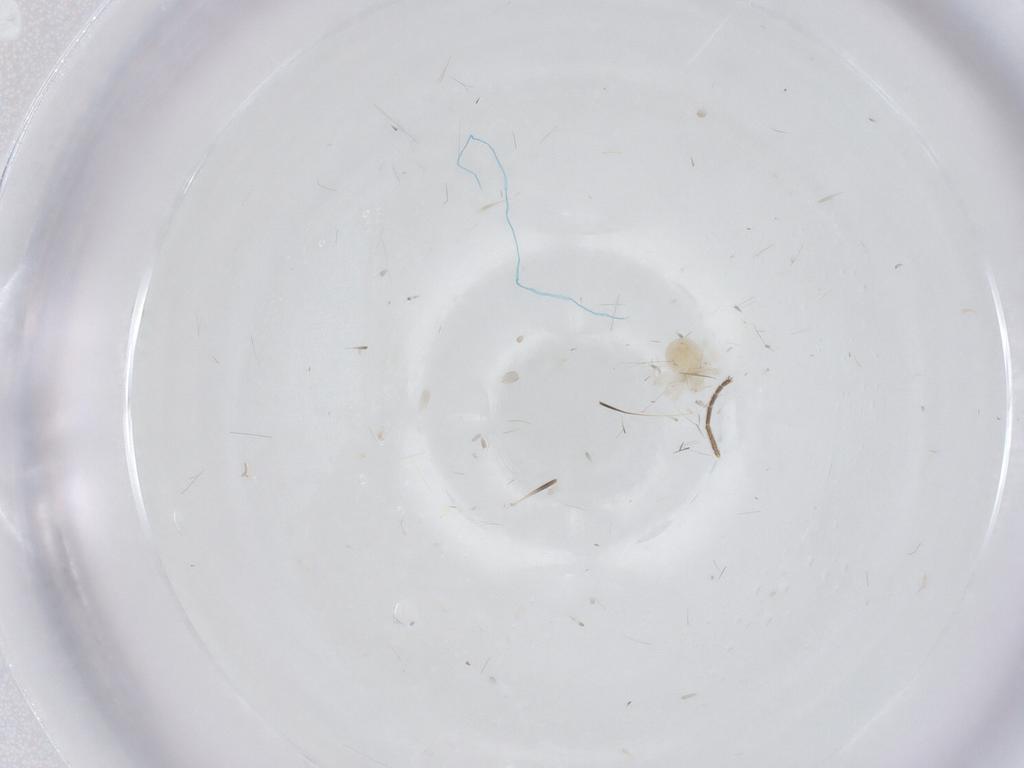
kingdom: Animalia
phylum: Arthropoda
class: Arachnida
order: Trombidiformes
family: Anystidae
